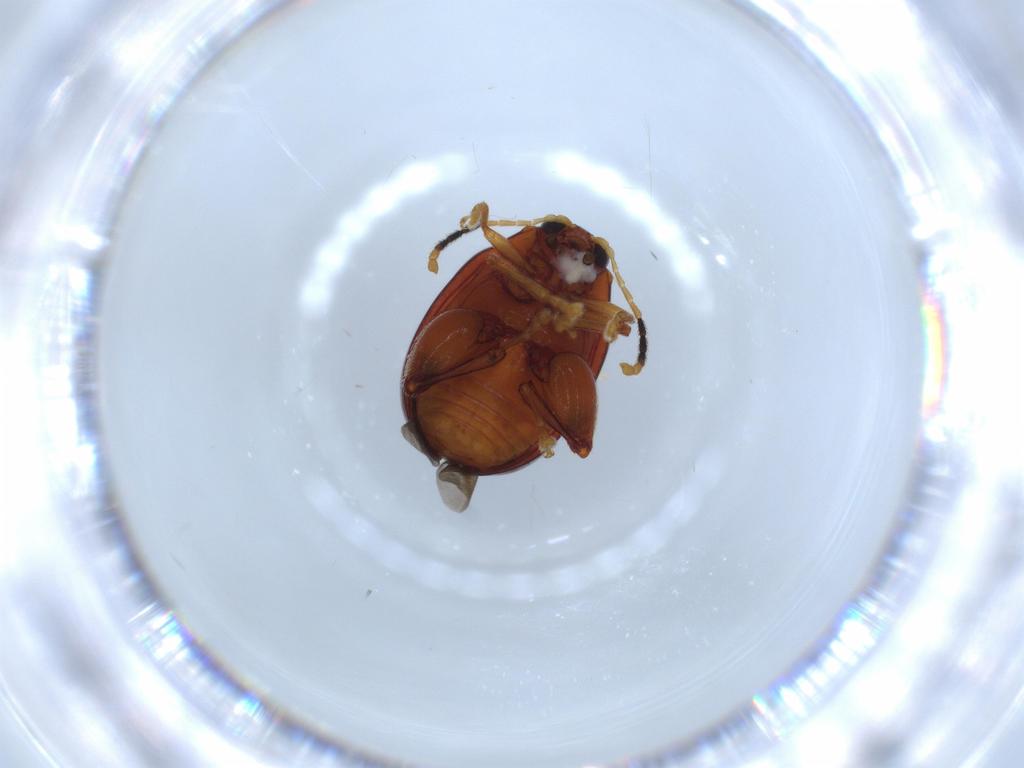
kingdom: Animalia
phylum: Arthropoda
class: Insecta
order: Coleoptera
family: Chrysomelidae
